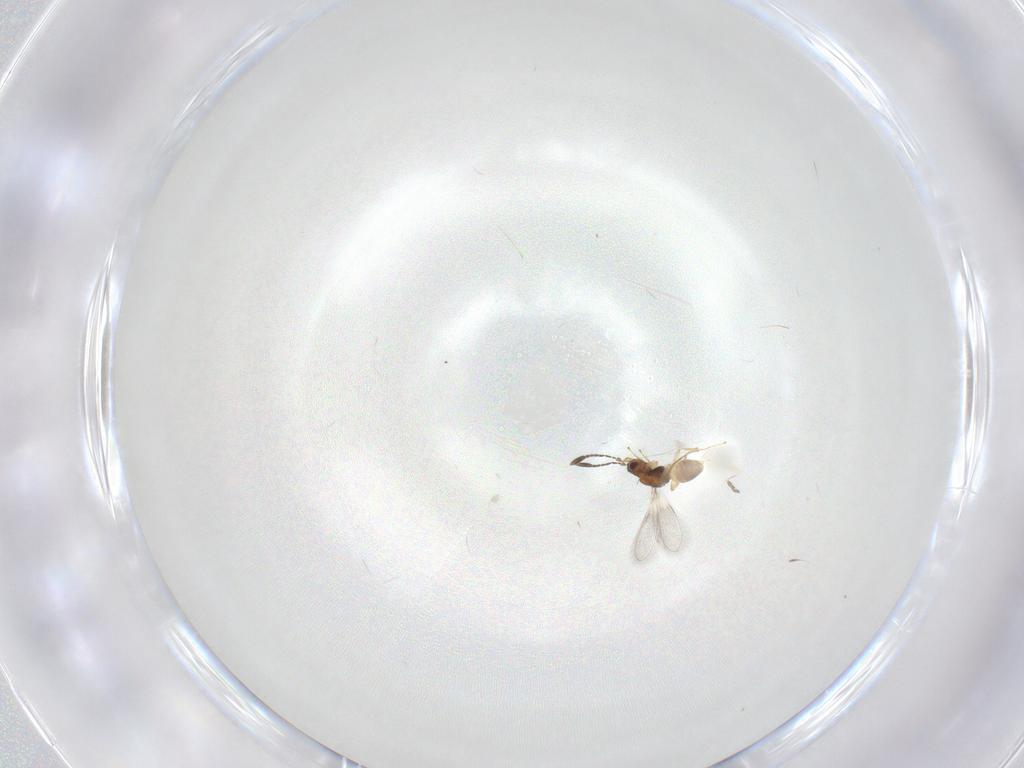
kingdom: Animalia
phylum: Arthropoda
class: Insecta
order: Hymenoptera
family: Mymaridae
